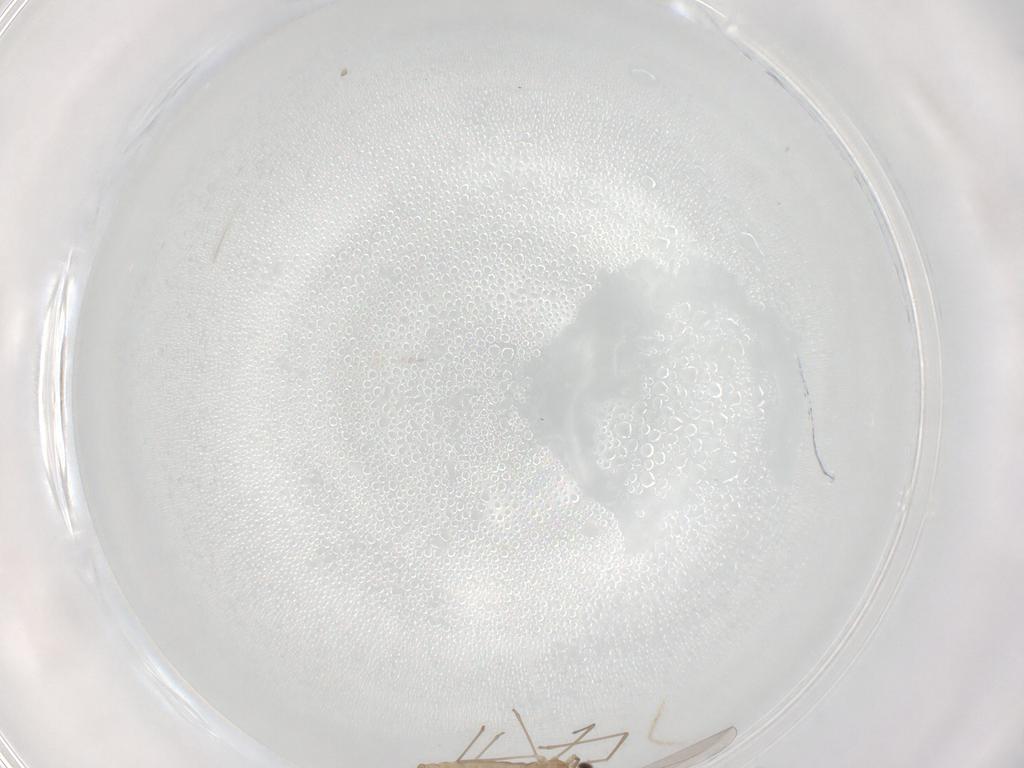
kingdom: Animalia
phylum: Arthropoda
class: Insecta
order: Diptera
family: Cecidomyiidae
